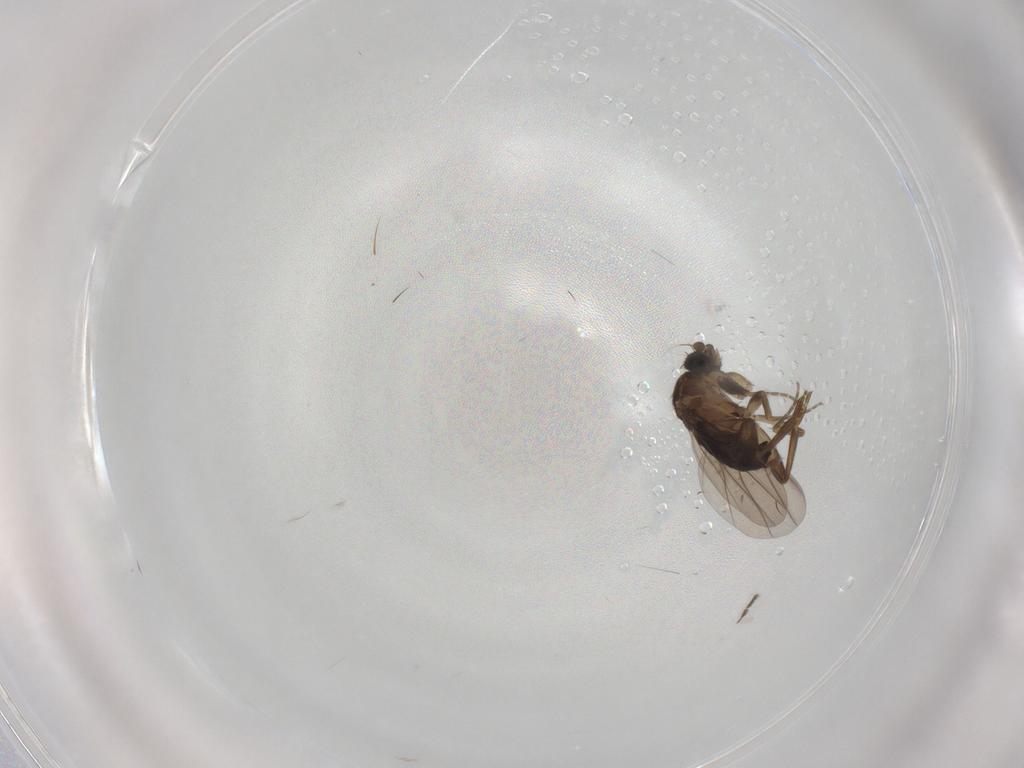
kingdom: Animalia
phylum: Arthropoda
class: Insecta
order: Diptera
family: Phoridae
